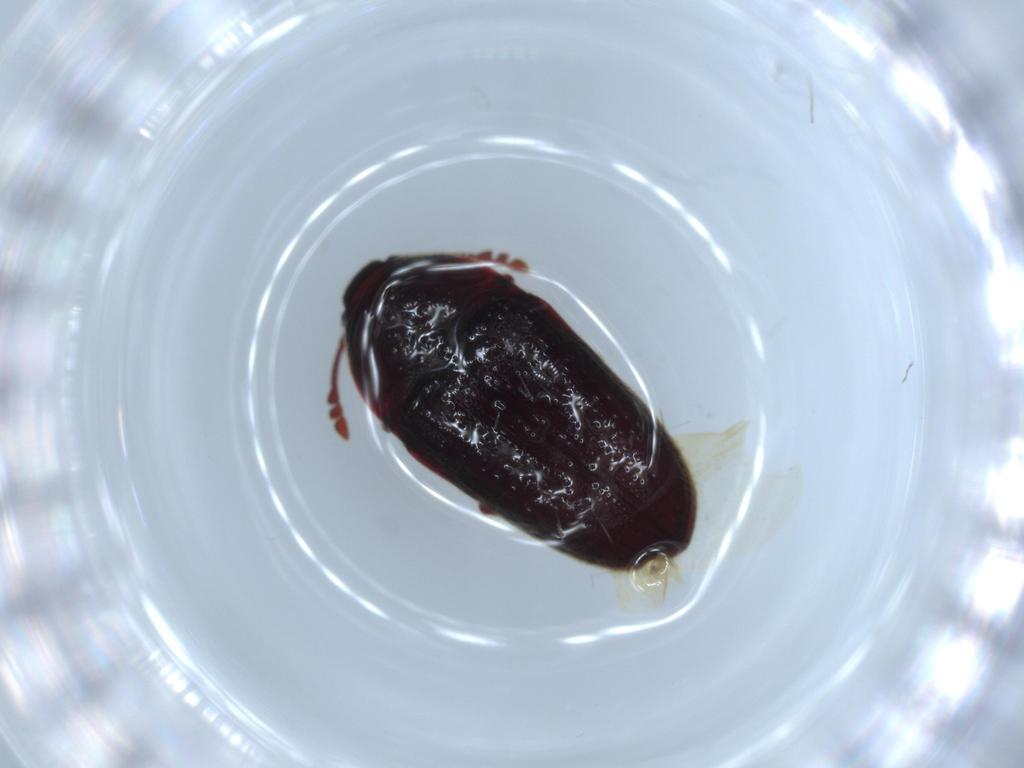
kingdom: Animalia
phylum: Arthropoda
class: Insecta
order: Coleoptera
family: Throscidae
